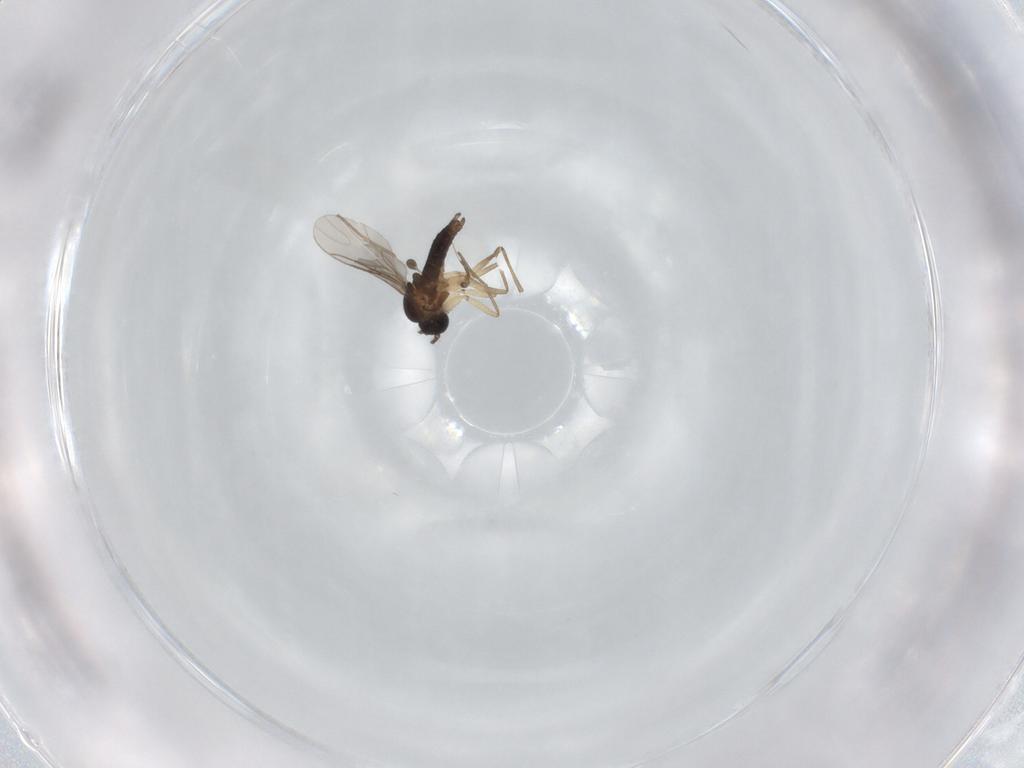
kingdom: Animalia
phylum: Arthropoda
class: Insecta
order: Diptera
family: Sciaridae
